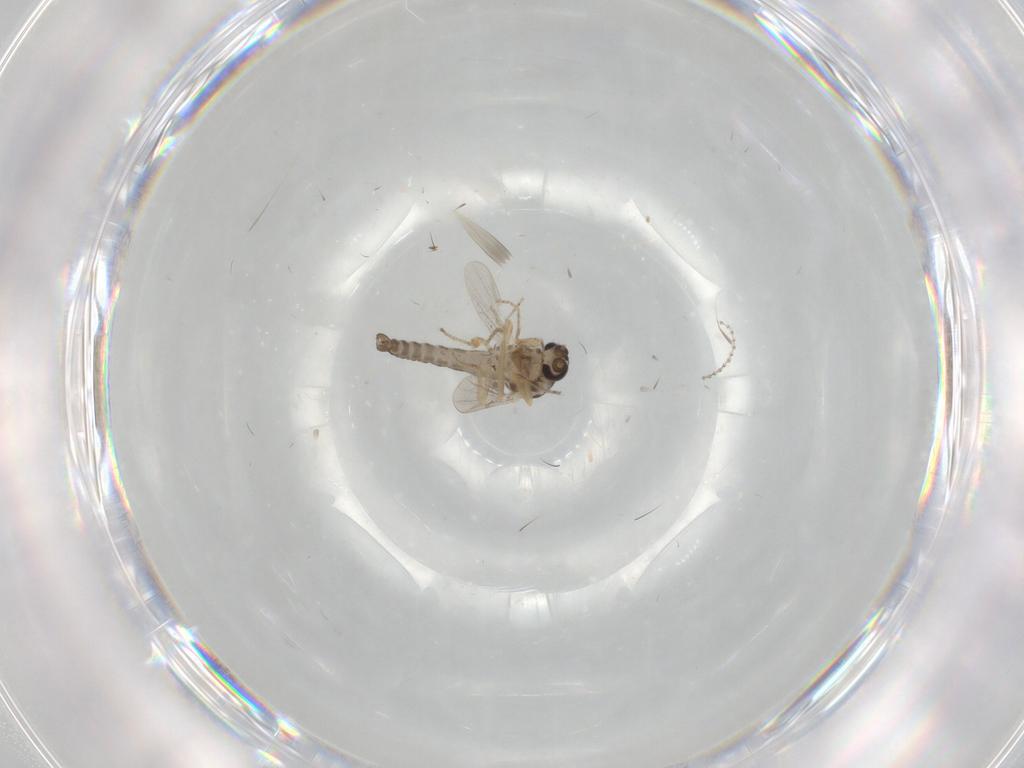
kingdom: Animalia
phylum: Arthropoda
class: Insecta
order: Diptera
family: Ceratopogonidae
